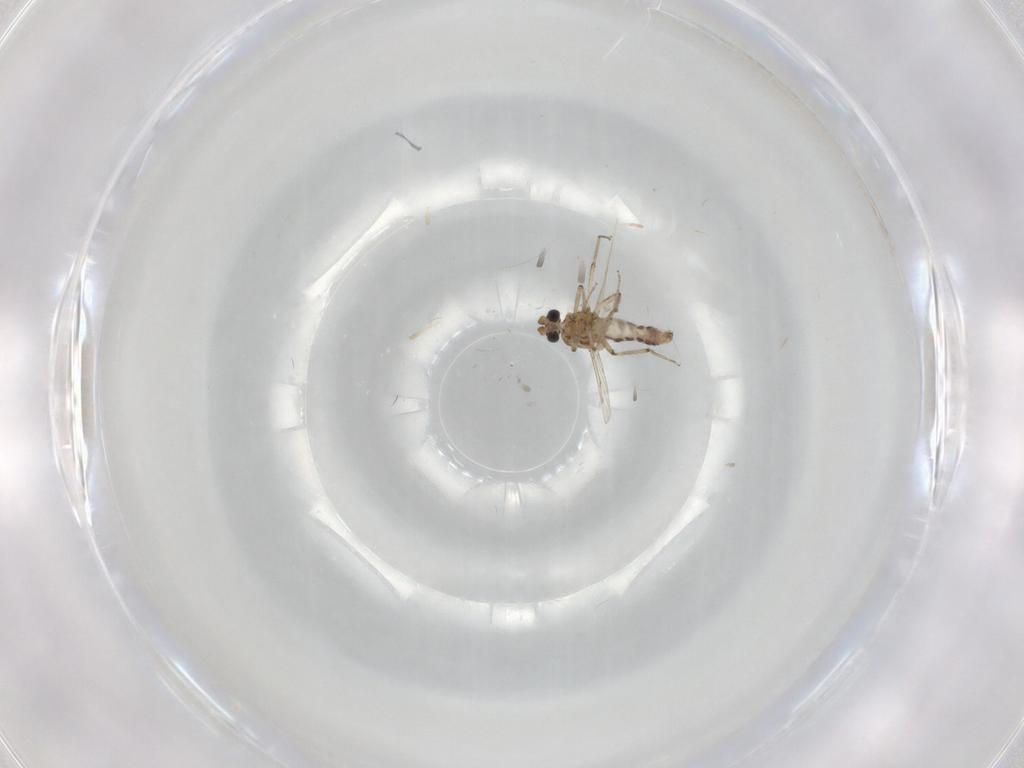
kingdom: Animalia
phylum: Arthropoda
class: Insecta
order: Diptera
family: Ceratopogonidae
